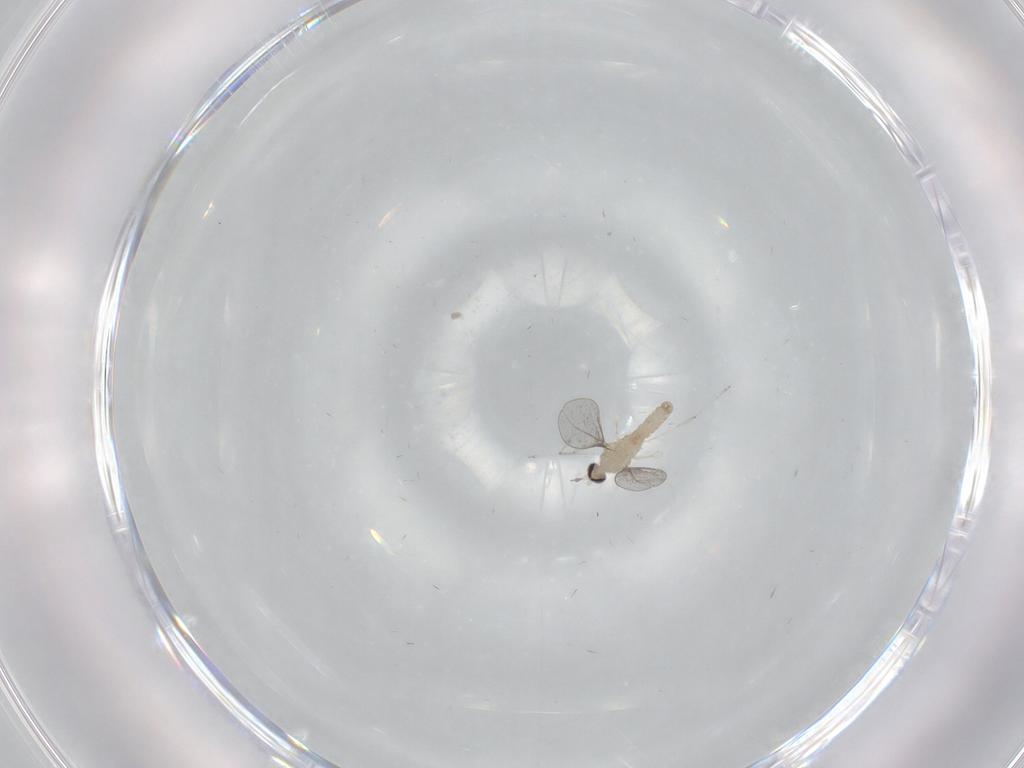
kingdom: Animalia
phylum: Arthropoda
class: Insecta
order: Diptera
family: Cecidomyiidae
